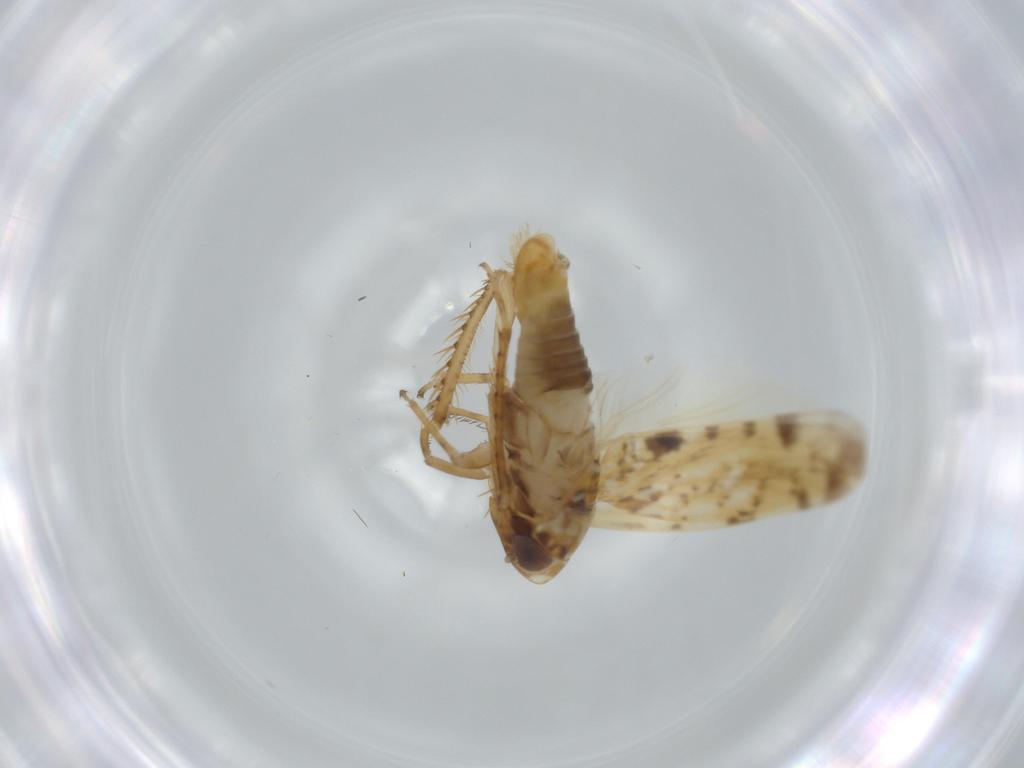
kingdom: Animalia
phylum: Arthropoda
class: Insecta
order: Hemiptera
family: Cicadellidae
